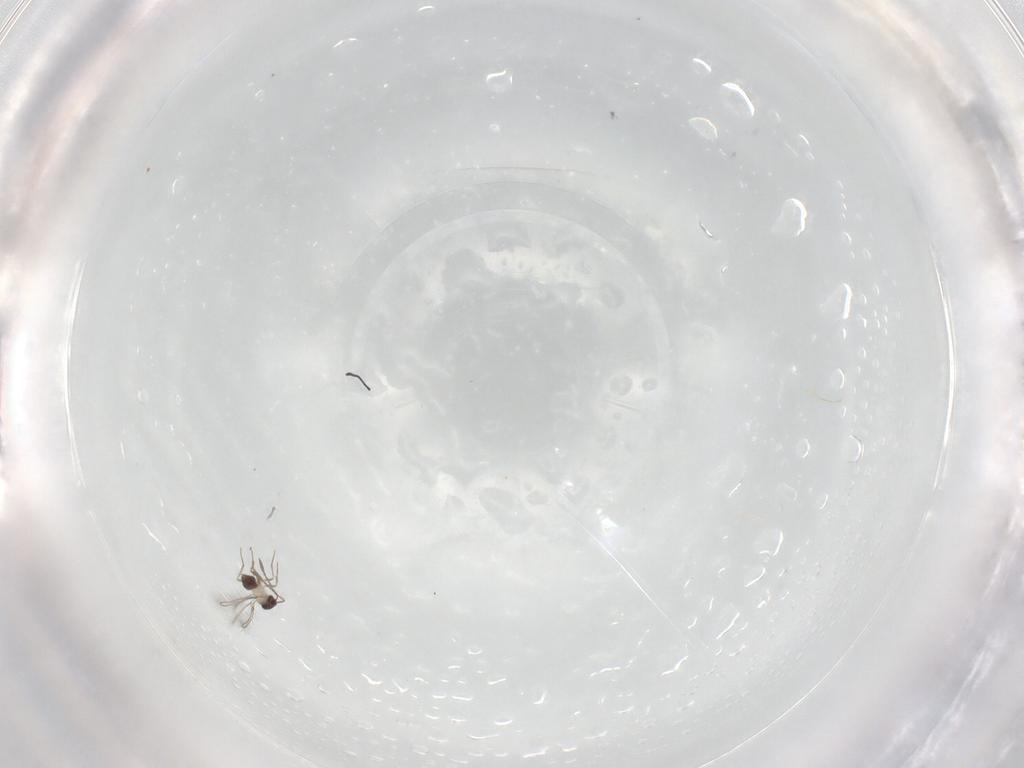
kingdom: Animalia
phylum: Arthropoda
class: Insecta
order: Hymenoptera
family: Mymaridae
